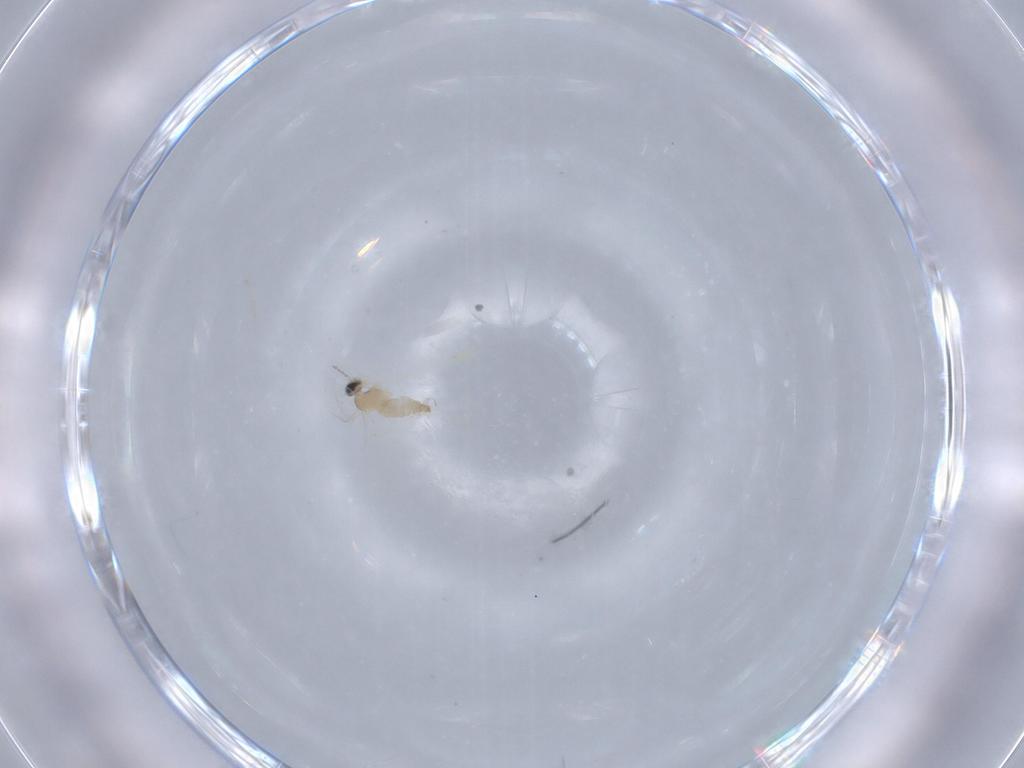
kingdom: Animalia
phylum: Arthropoda
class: Insecta
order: Diptera
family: Cecidomyiidae
